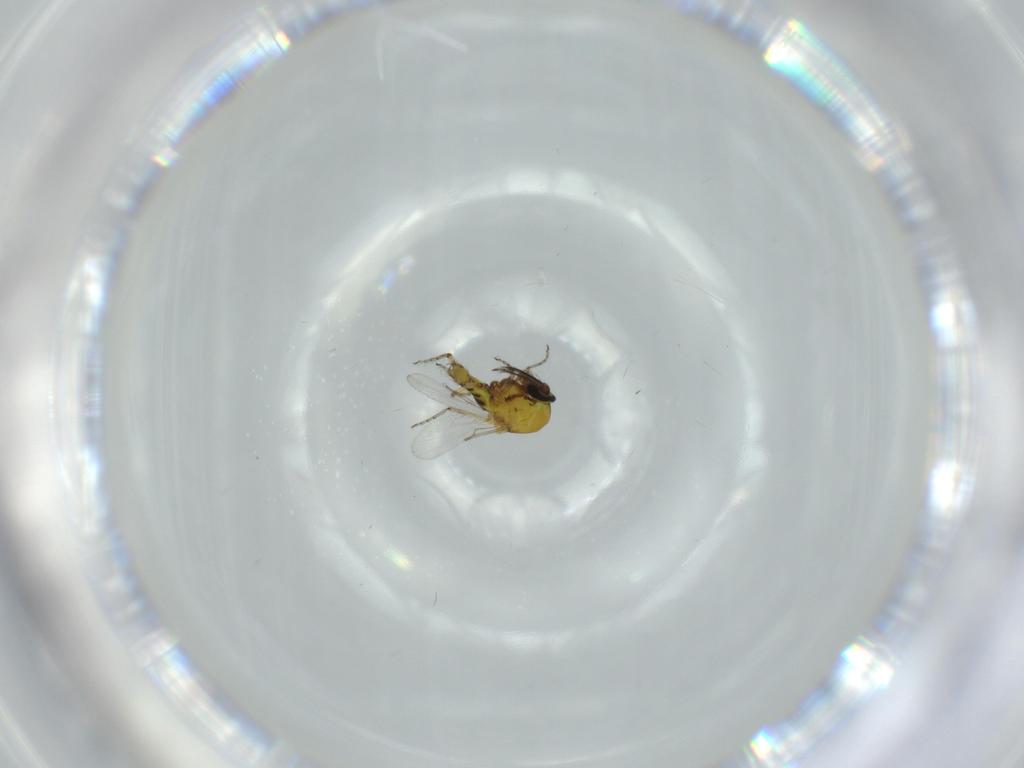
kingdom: Animalia
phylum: Arthropoda
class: Insecta
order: Diptera
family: Ceratopogonidae
